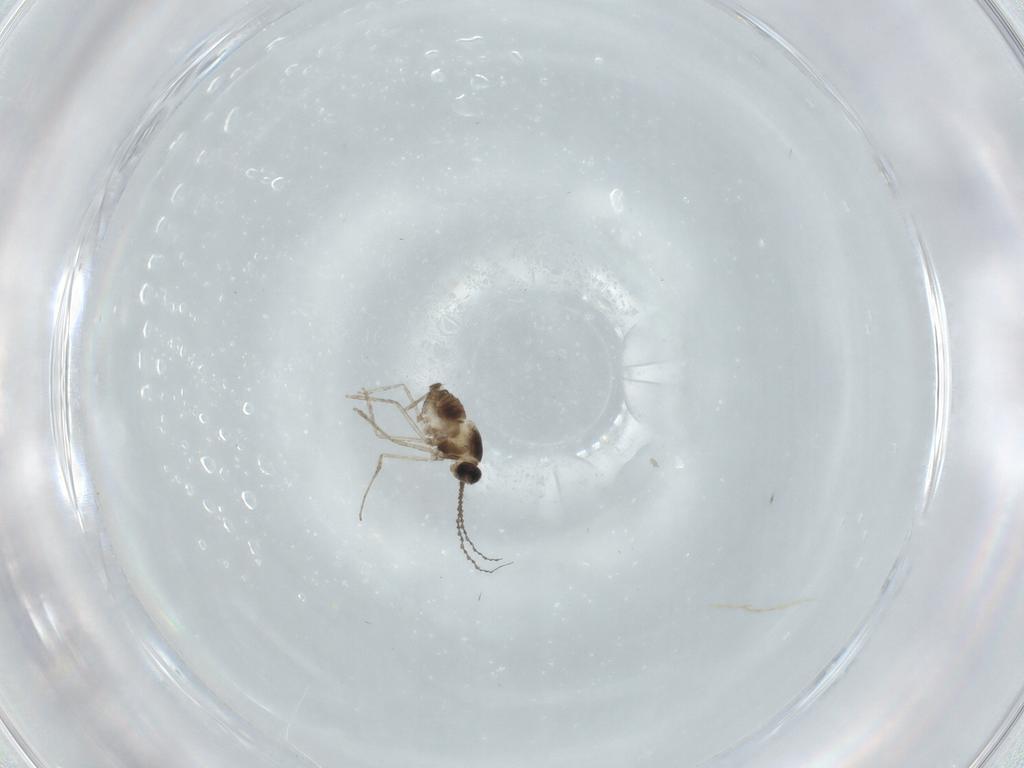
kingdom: Animalia
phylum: Arthropoda
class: Insecta
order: Diptera
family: Cecidomyiidae
